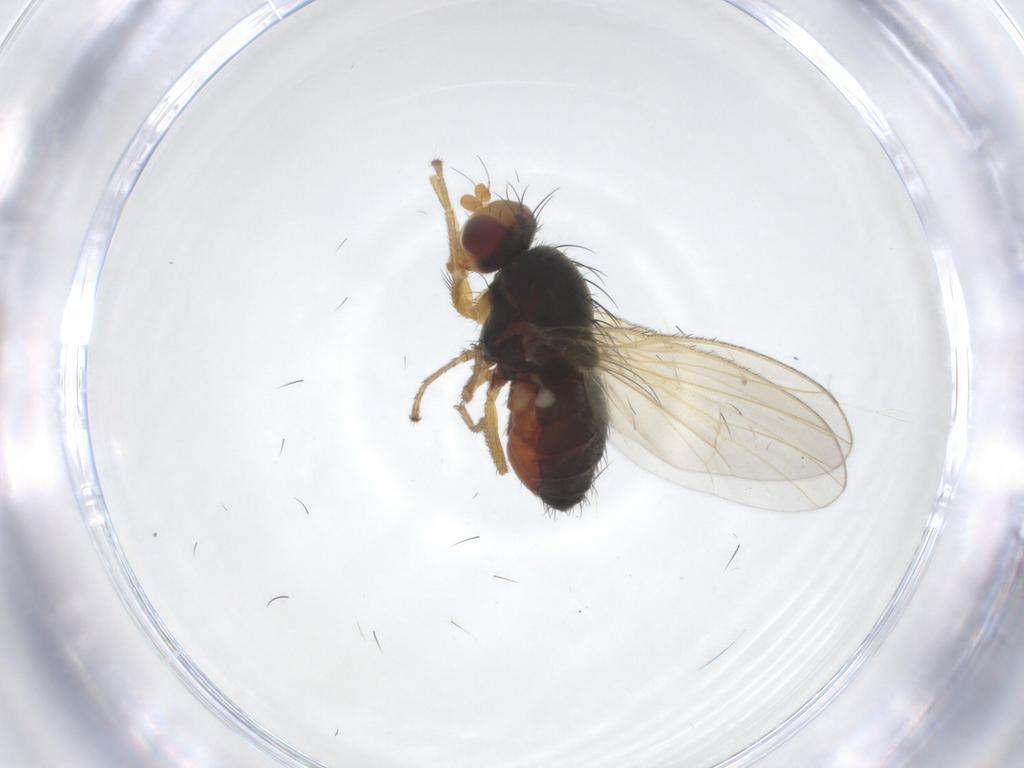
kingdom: Animalia
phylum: Arthropoda
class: Insecta
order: Diptera
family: Heleomyzidae
